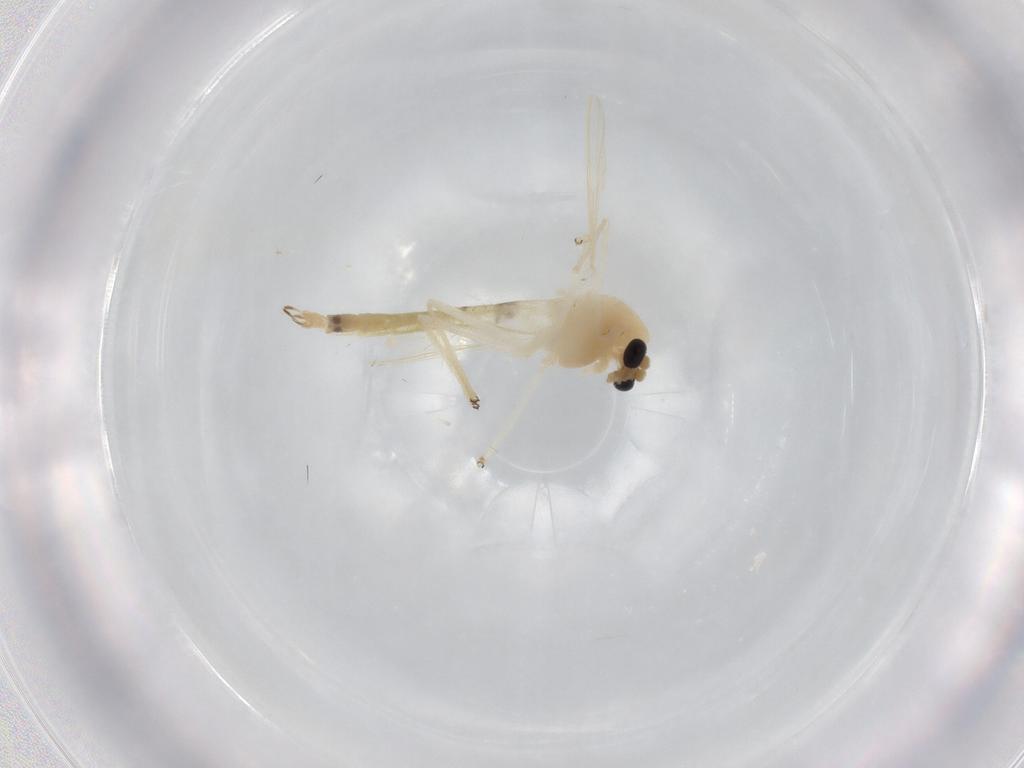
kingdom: Animalia
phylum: Arthropoda
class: Insecta
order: Diptera
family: Chironomidae
